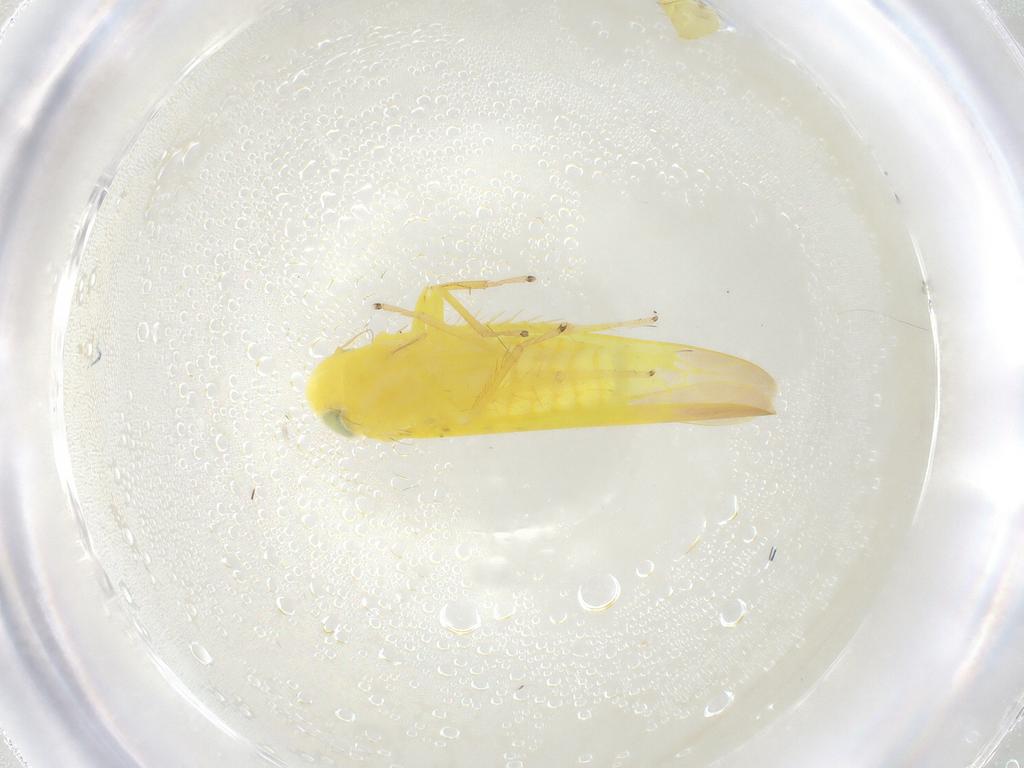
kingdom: Animalia
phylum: Arthropoda
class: Insecta
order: Hemiptera
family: Cicadellidae
